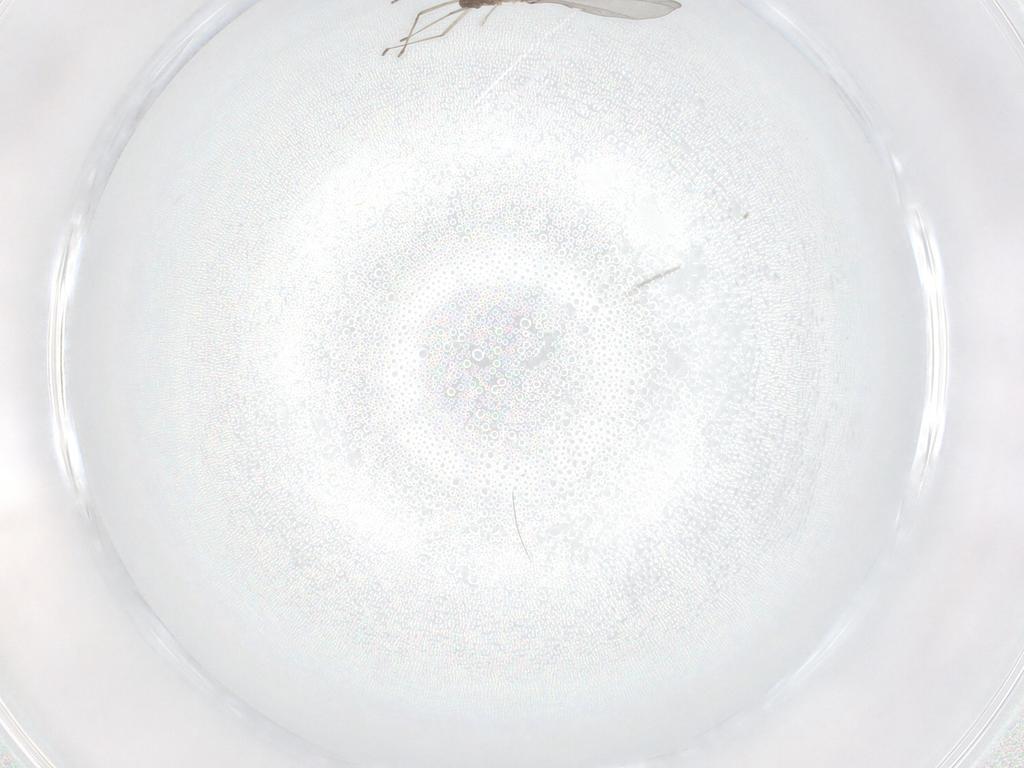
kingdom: Animalia
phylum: Arthropoda
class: Insecta
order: Diptera
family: Cecidomyiidae
